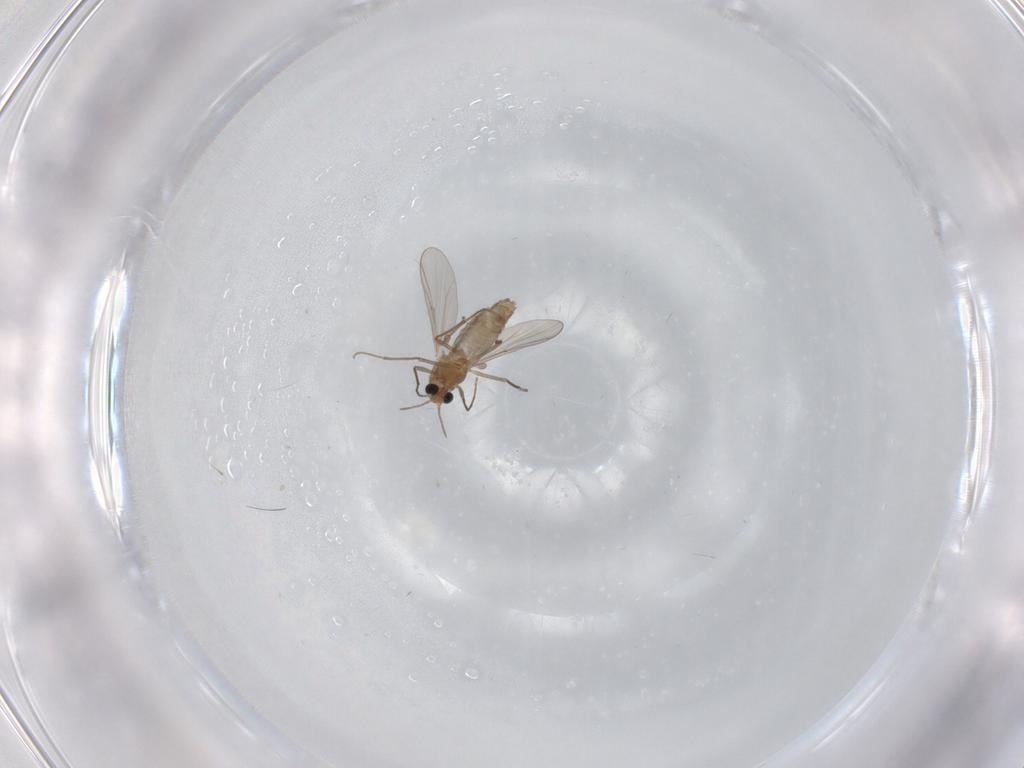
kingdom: Animalia
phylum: Arthropoda
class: Insecta
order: Diptera
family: Chironomidae
